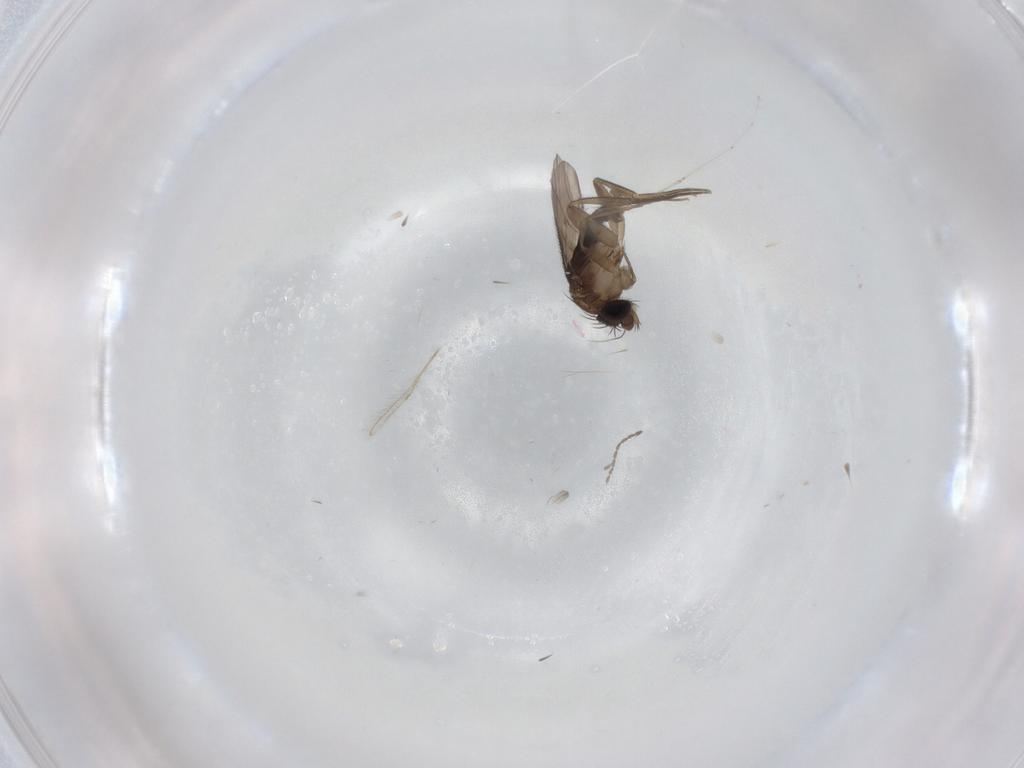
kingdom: Animalia
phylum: Arthropoda
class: Insecta
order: Diptera
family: Phoridae
